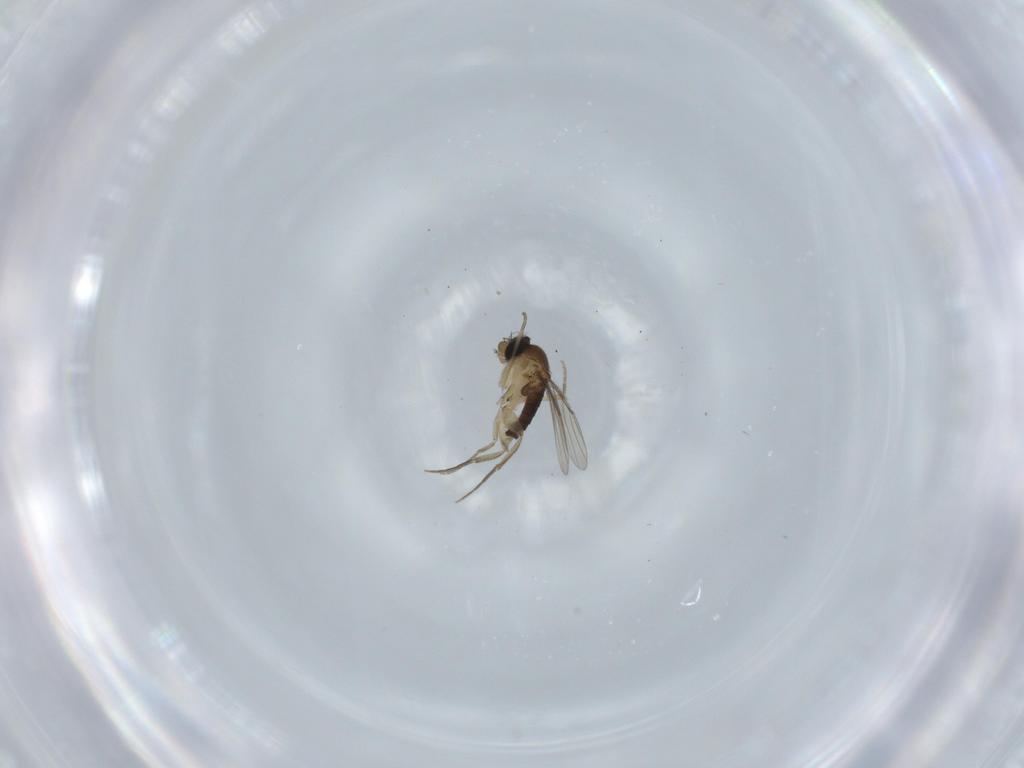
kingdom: Animalia
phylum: Arthropoda
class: Insecta
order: Diptera
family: Phoridae
